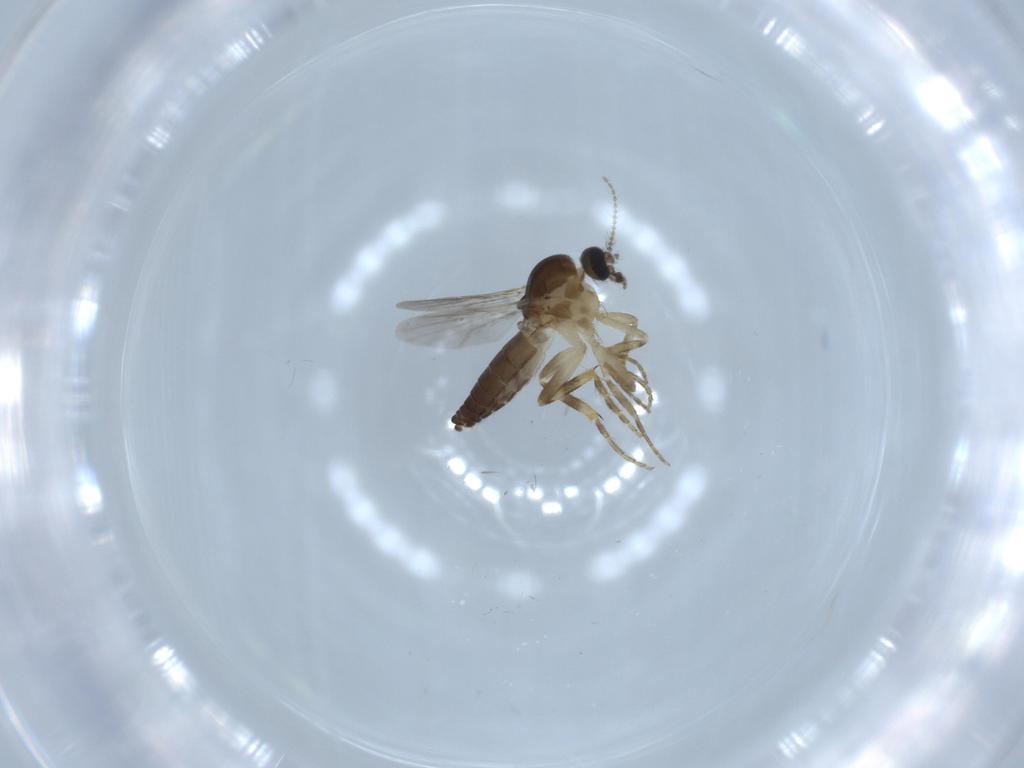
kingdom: Animalia
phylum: Arthropoda
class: Insecta
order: Diptera
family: Ceratopogonidae
